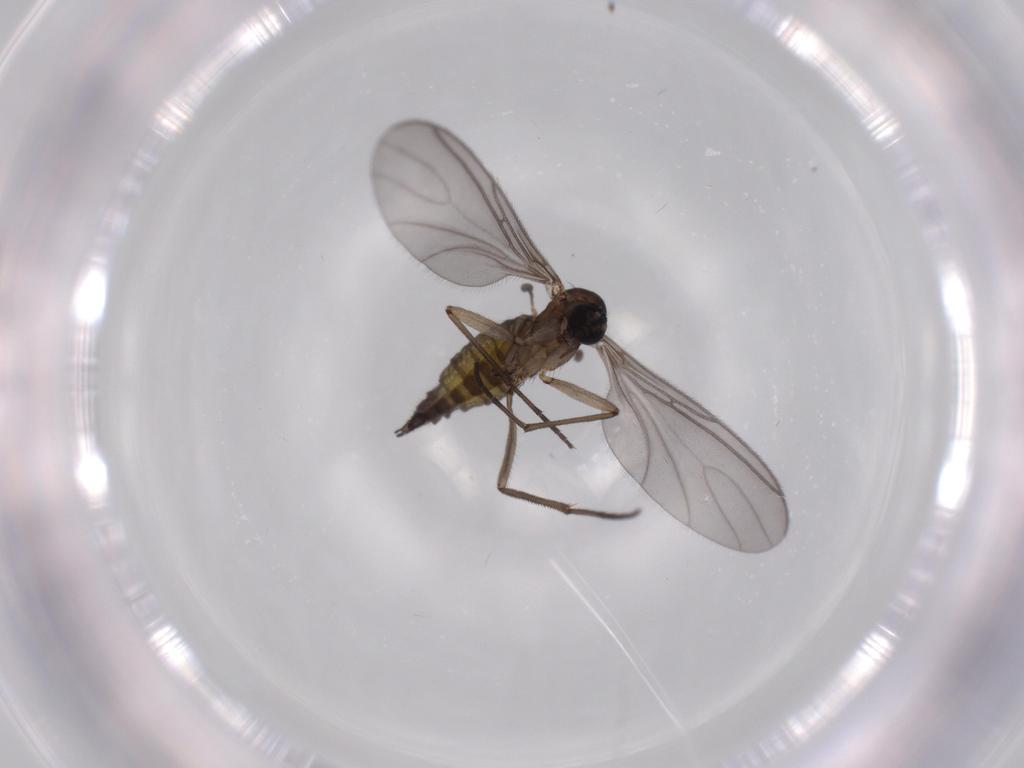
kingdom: Animalia
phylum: Arthropoda
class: Insecta
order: Diptera
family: Sciaridae
